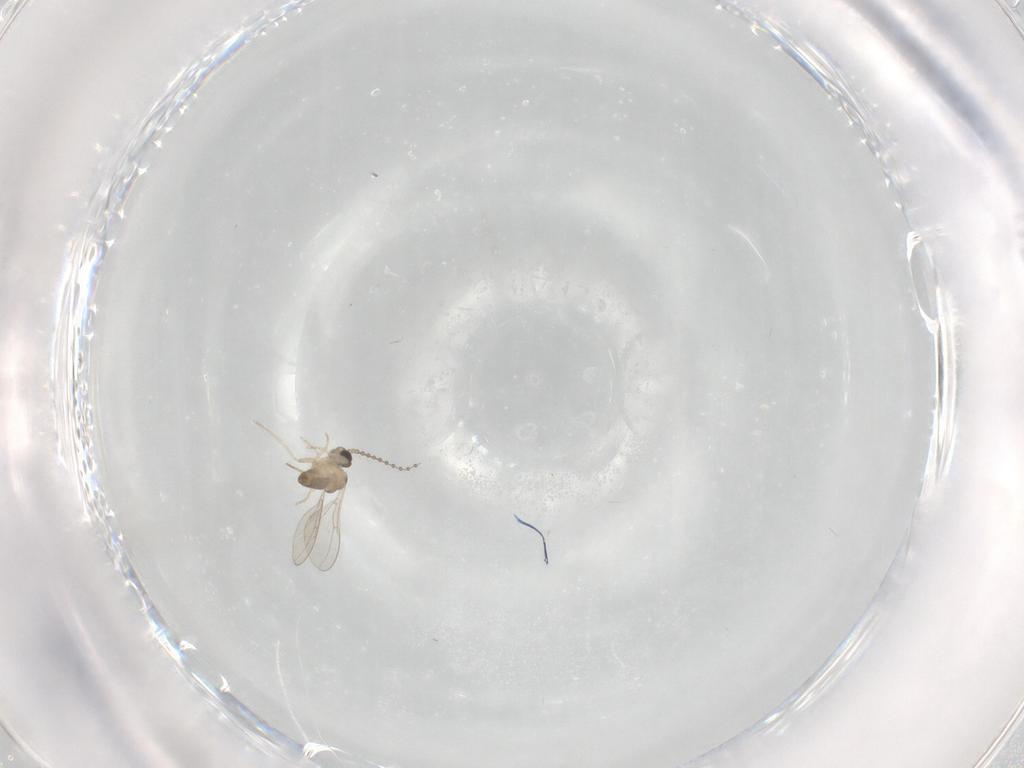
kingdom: Animalia
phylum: Arthropoda
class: Insecta
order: Diptera
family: Cecidomyiidae
